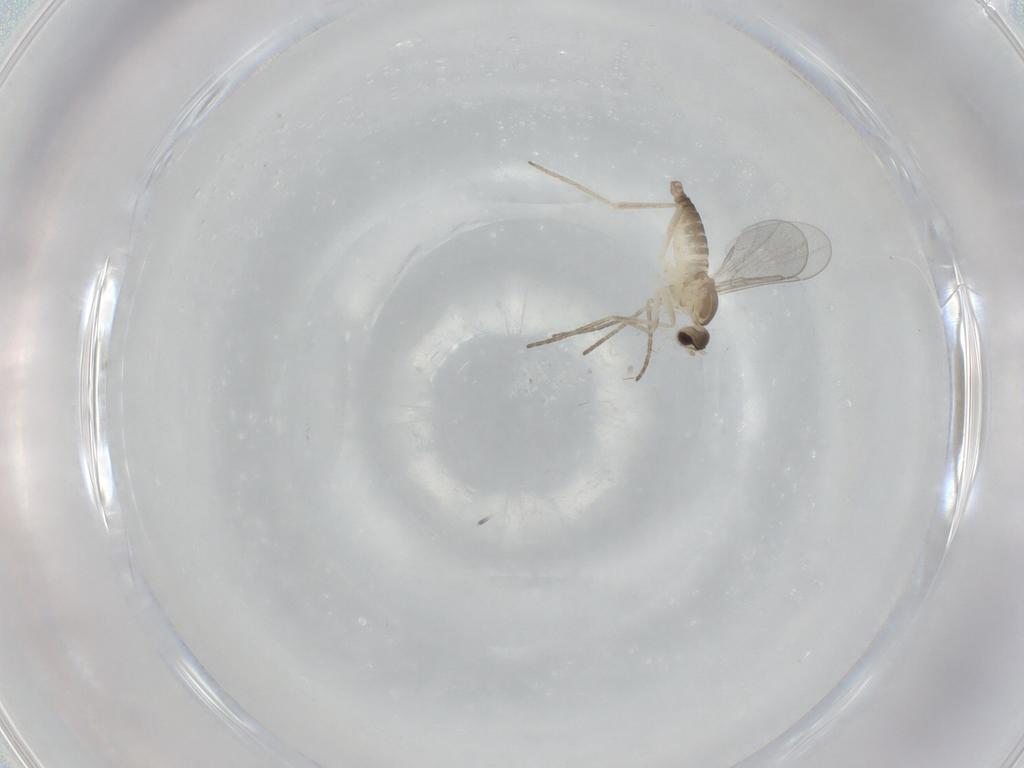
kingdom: Animalia
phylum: Arthropoda
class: Insecta
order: Diptera
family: Cecidomyiidae
